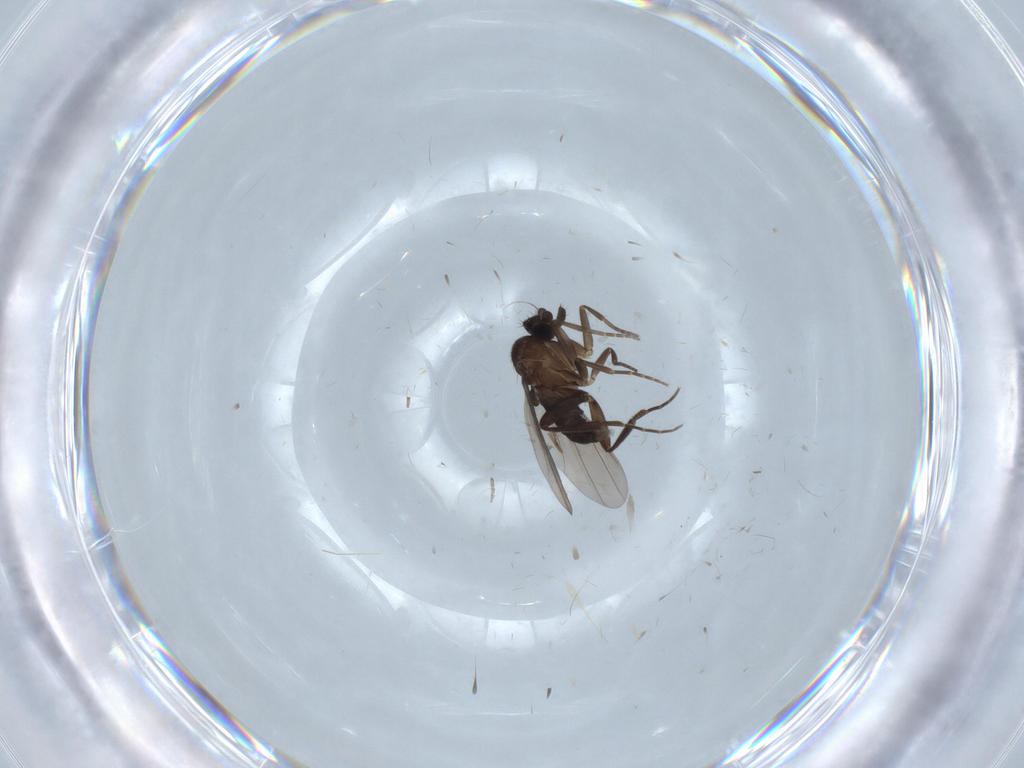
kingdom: Animalia
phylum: Arthropoda
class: Insecta
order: Diptera
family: Phoridae
